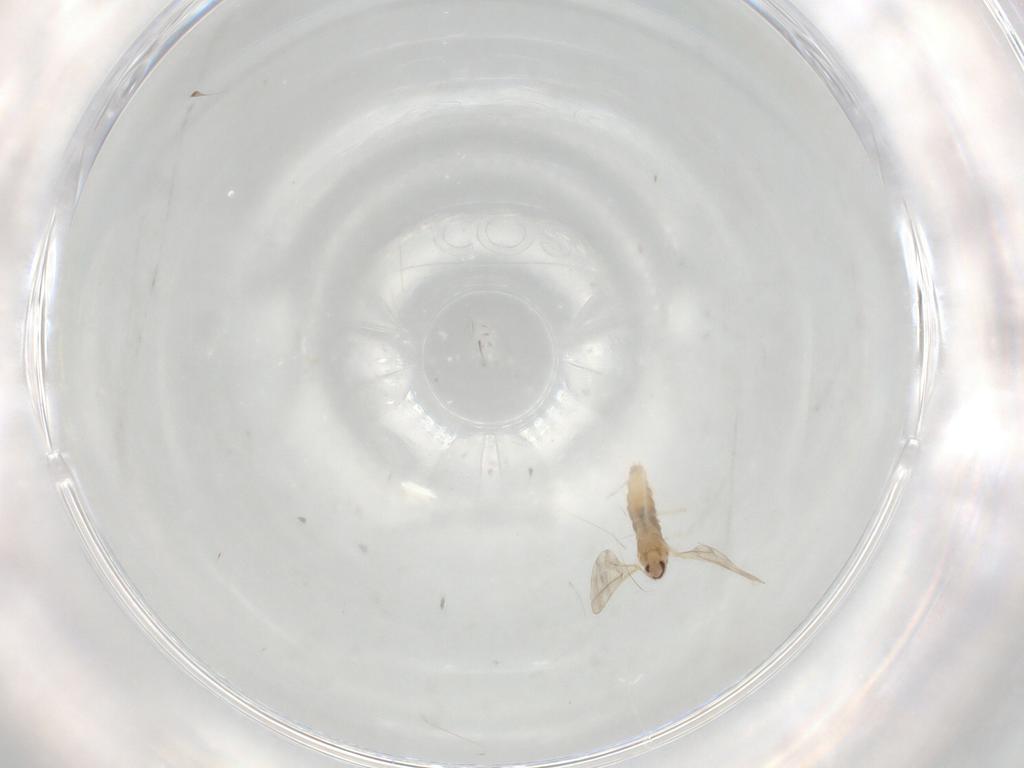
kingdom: Animalia
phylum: Arthropoda
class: Insecta
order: Diptera
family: Cecidomyiidae
